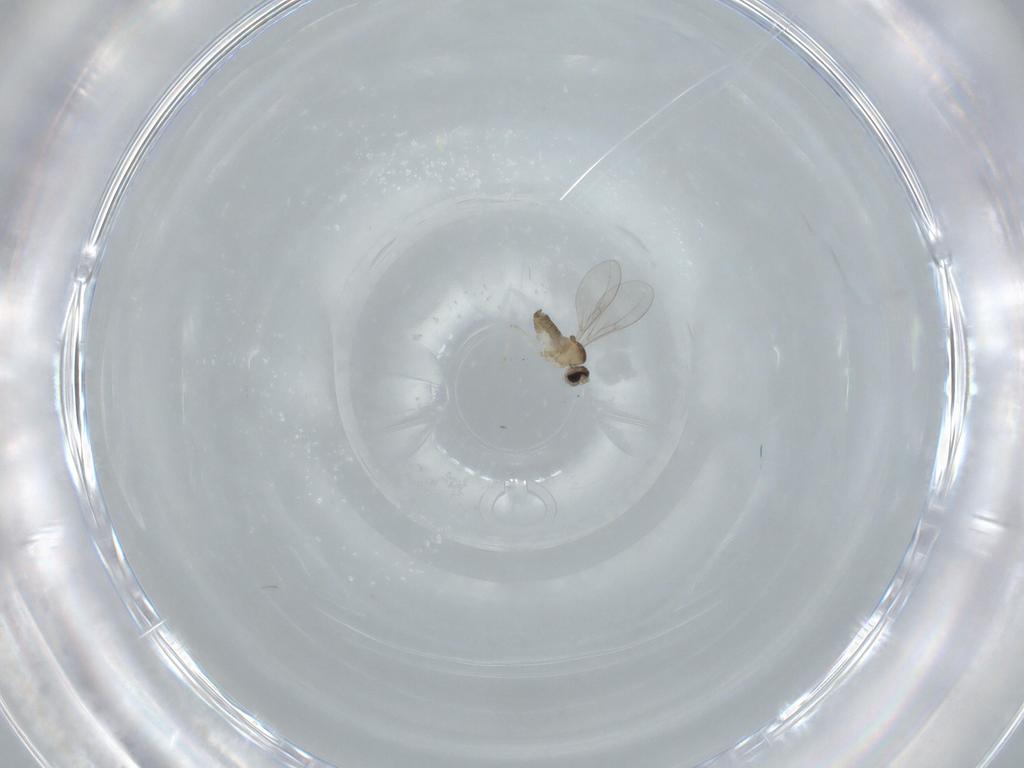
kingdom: Animalia
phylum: Arthropoda
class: Insecta
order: Diptera
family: Cecidomyiidae
